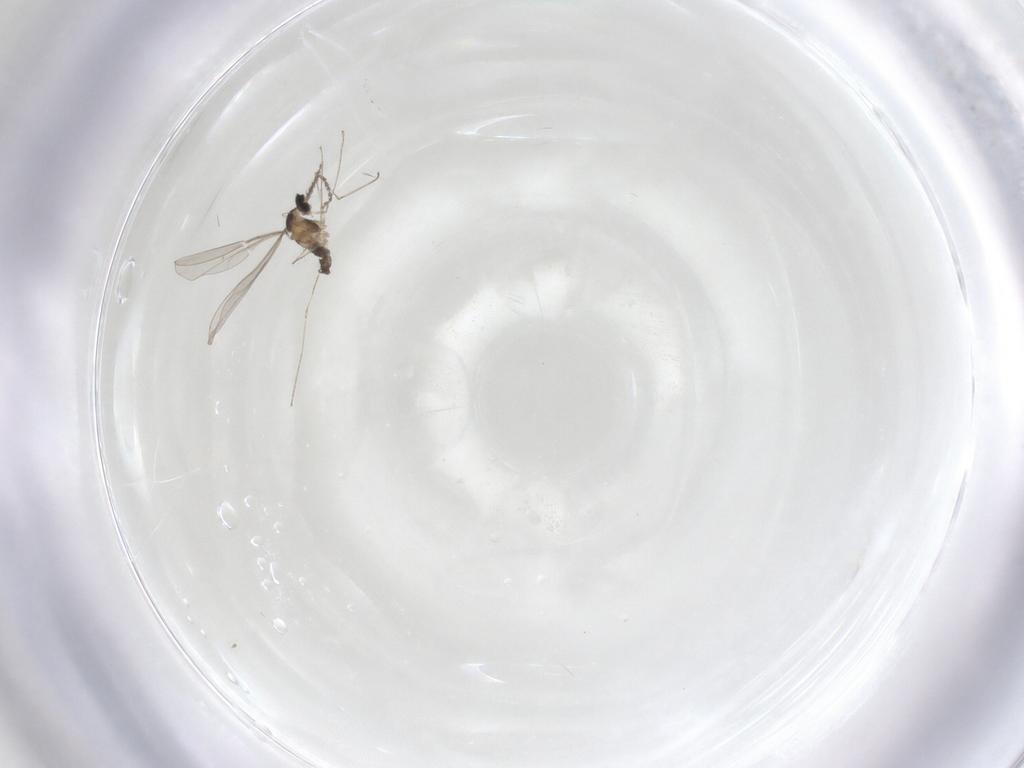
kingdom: Animalia
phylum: Arthropoda
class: Insecta
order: Diptera
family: Cecidomyiidae
